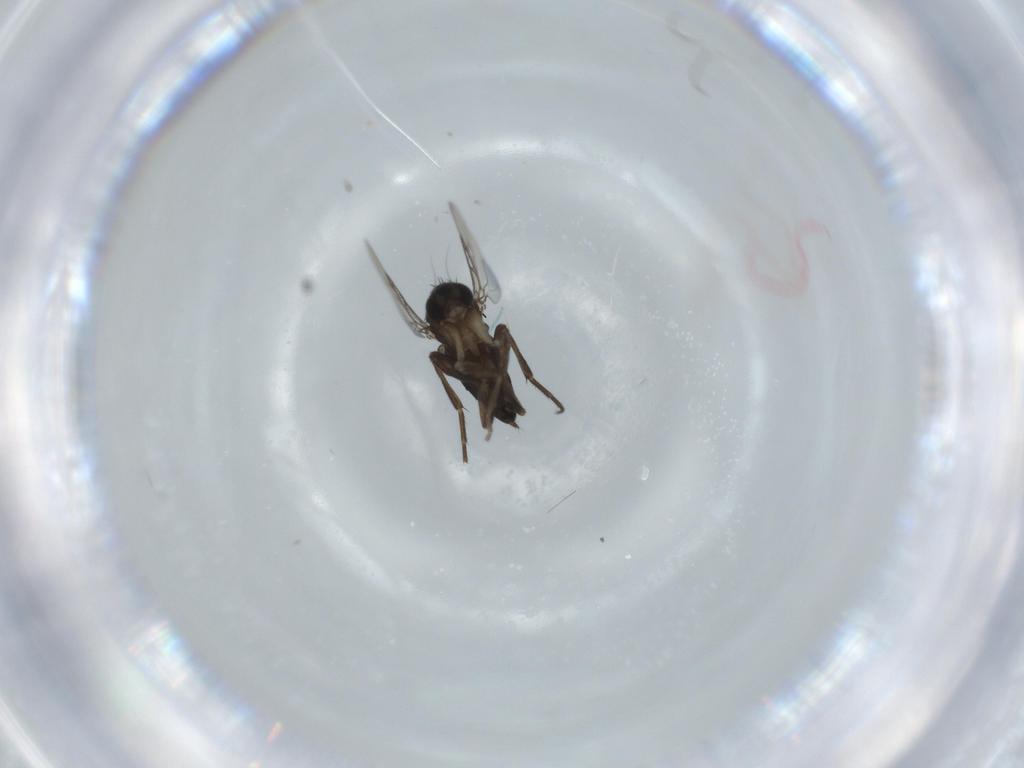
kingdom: Animalia
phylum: Arthropoda
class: Insecta
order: Diptera
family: Phoridae
